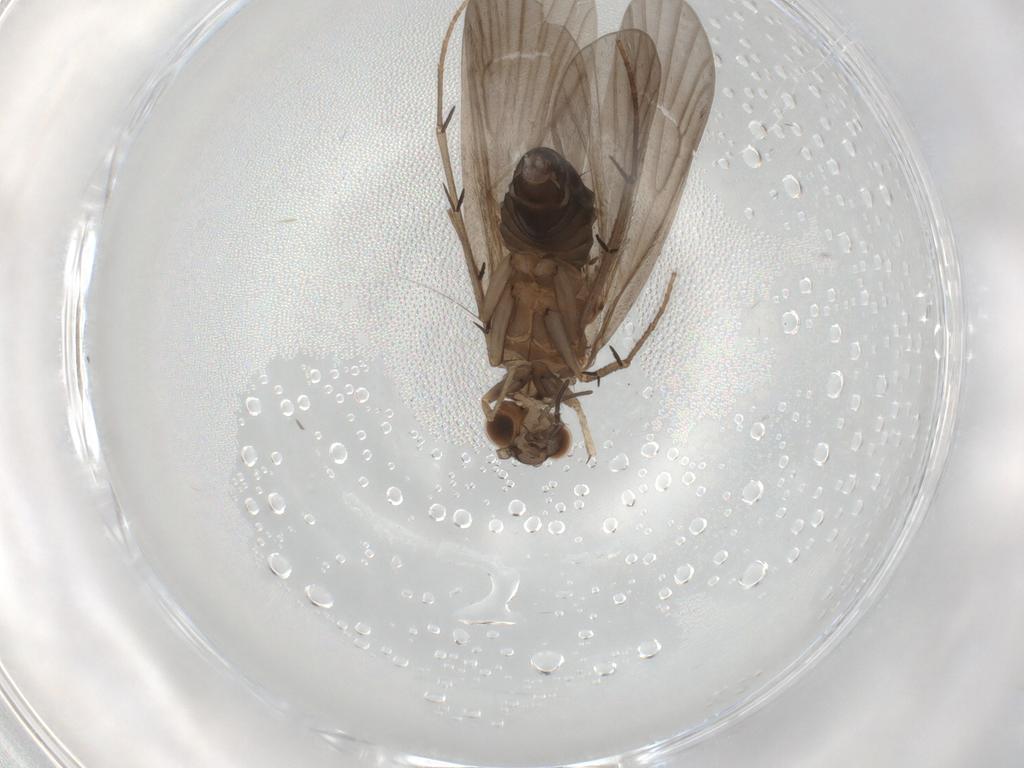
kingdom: Animalia
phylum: Arthropoda
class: Insecta
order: Trichoptera
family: Philopotamidae
